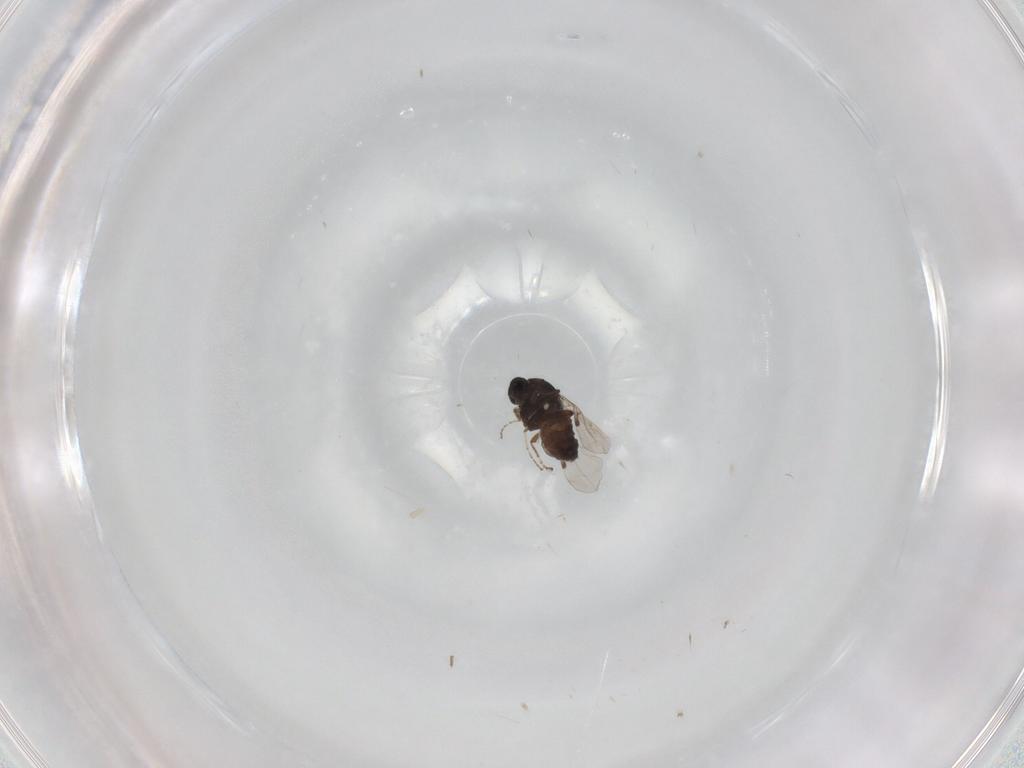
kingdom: Animalia
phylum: Arthropoda
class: Insecta
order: Diptera
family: Ceratopogonidae
